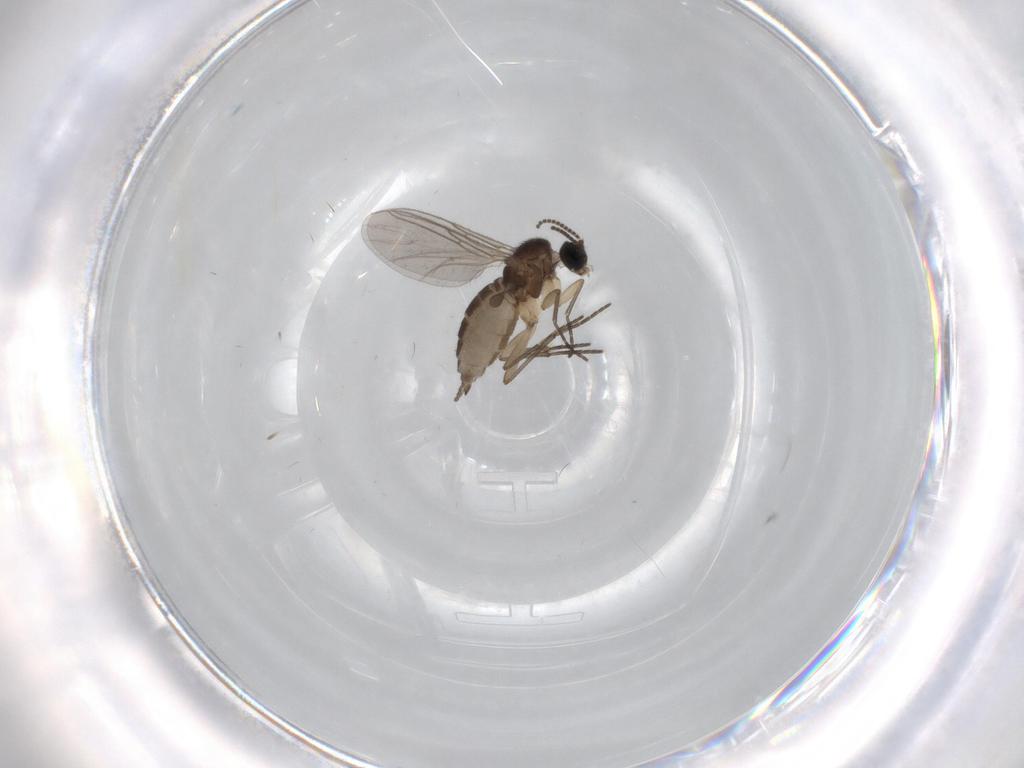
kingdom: Animalia
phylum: Arthropoda
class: Insecta
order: Diptera
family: Sciaridae
